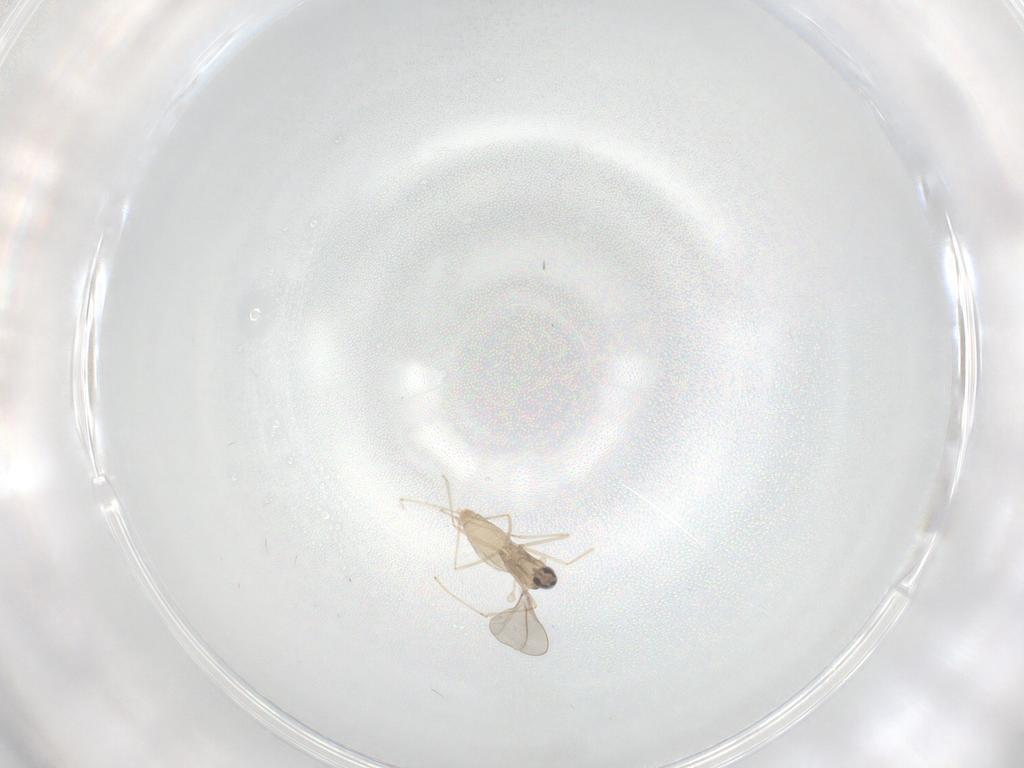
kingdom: Animalia
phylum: Arthropoda
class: Insecta
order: Diptera
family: Cecidomyiidae
